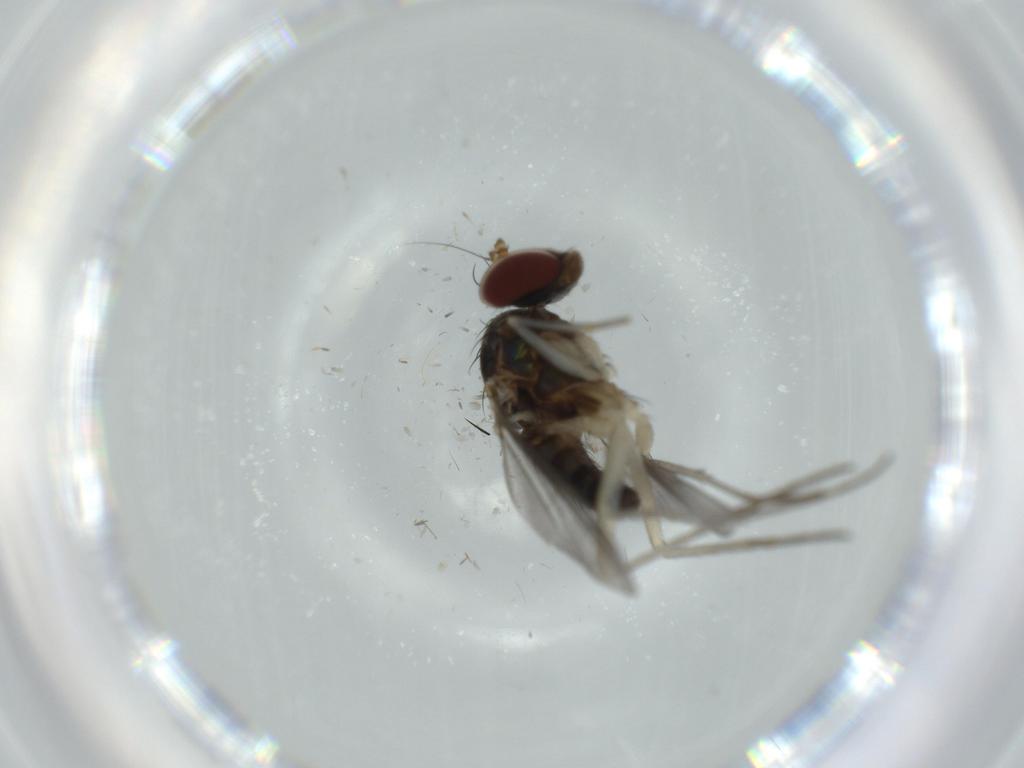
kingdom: Animalia
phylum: Arthropoda
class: Insecta
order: Diptera
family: Dolichopodidae
